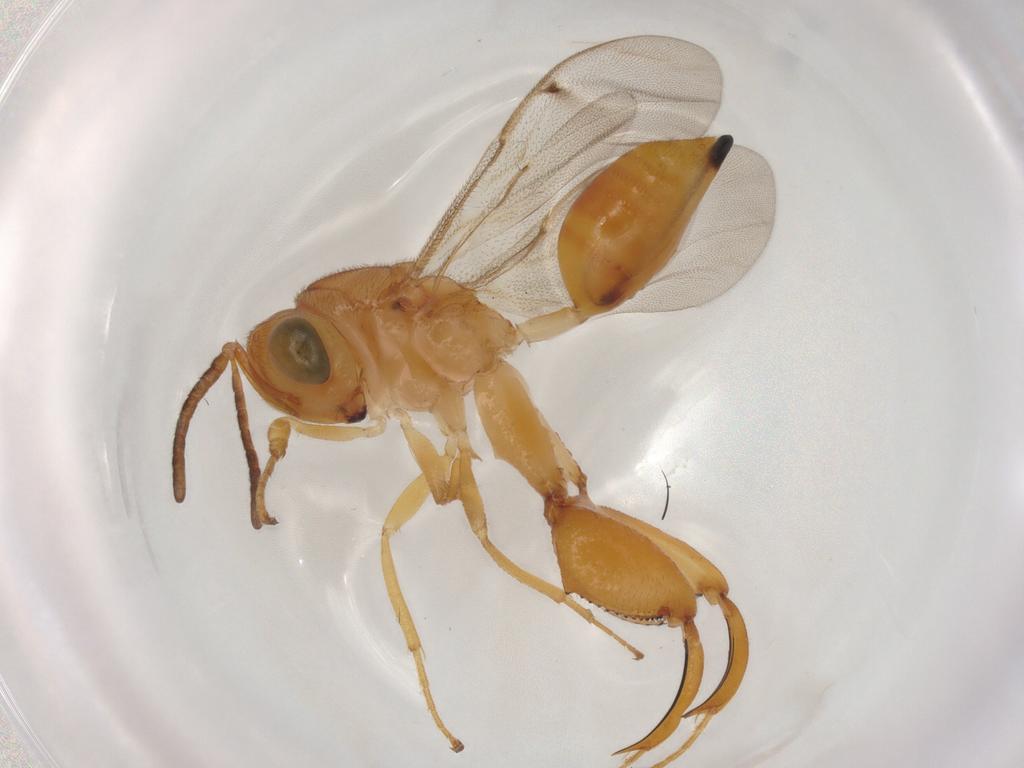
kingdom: Animalia
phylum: Arthropoda
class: Insecta
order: Hymenoptera
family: Chalcididae
